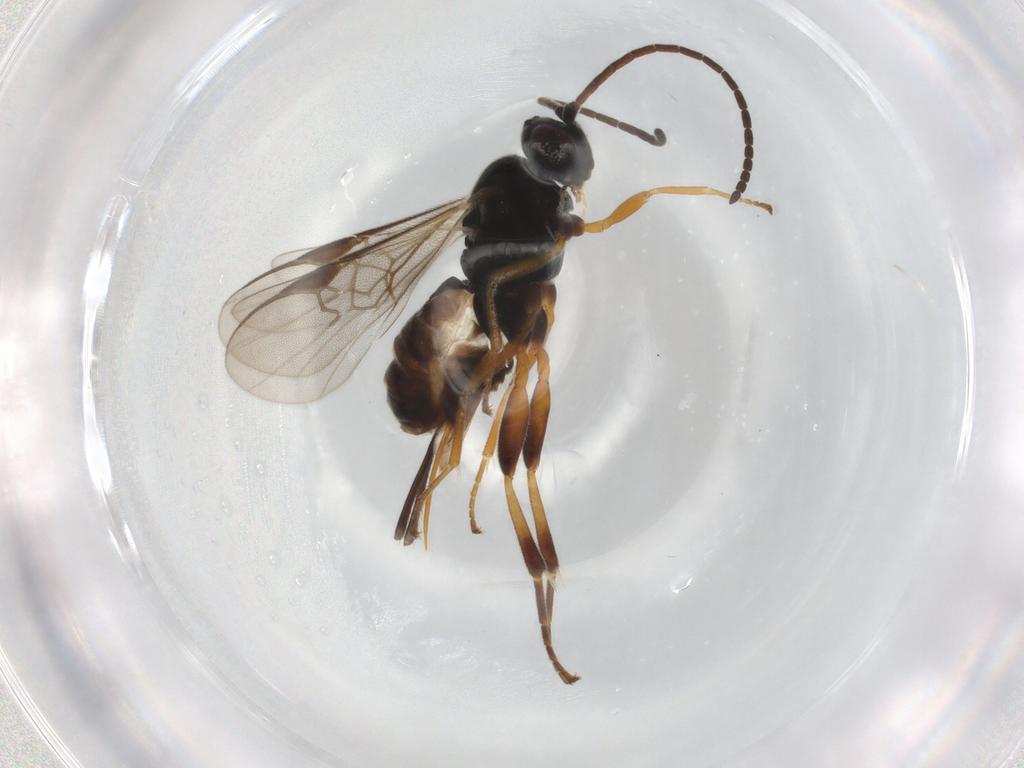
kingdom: Animalia
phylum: Arthropoda
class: Insecta
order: Hymenoptera
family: Braconidae
